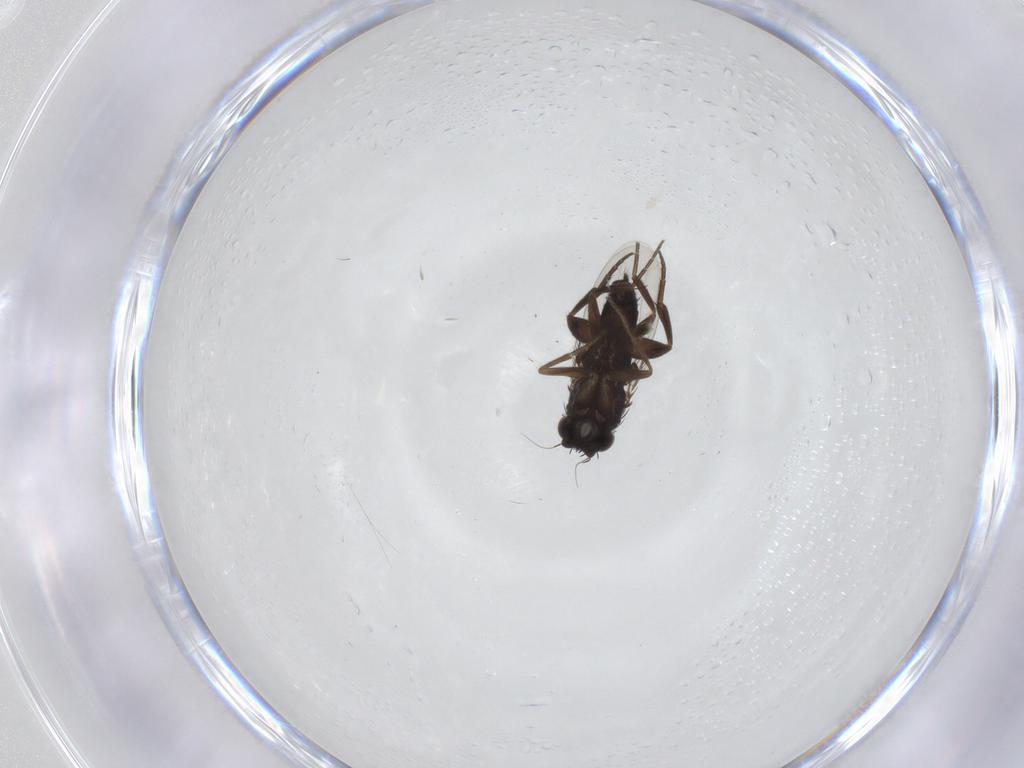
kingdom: Animalia
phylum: Arthropoda
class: Insecta
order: Diptera
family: Phoridae
